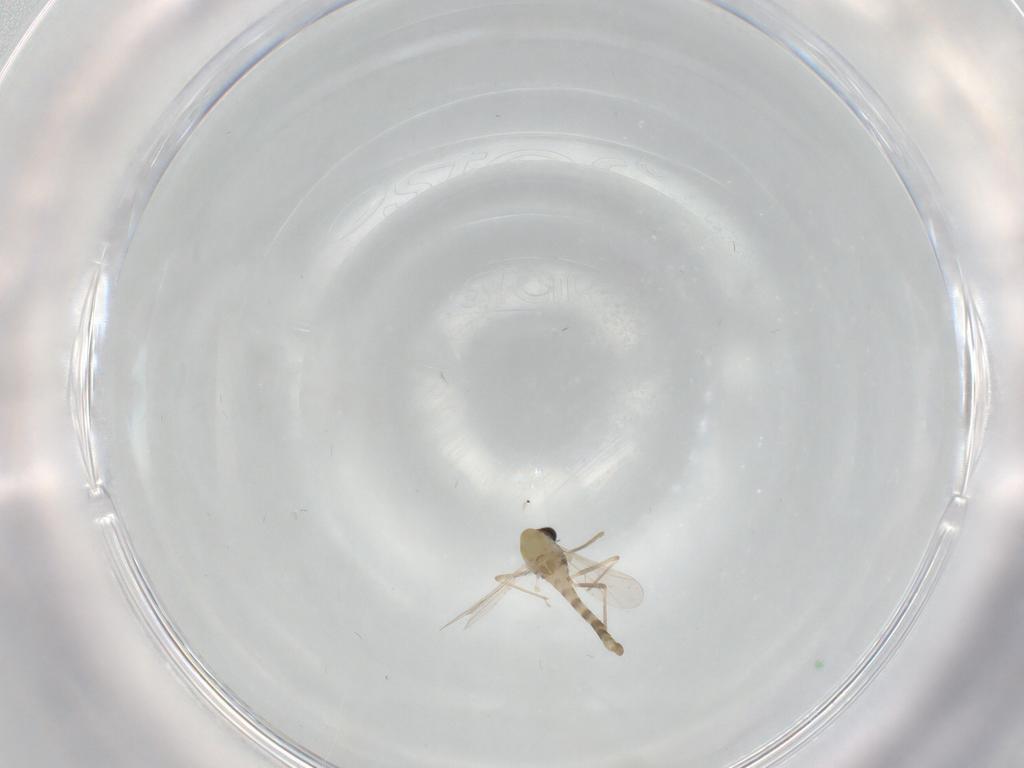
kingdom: Animalia
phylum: Arthropoda
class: Insecta
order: Diptera
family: Chironomidae
